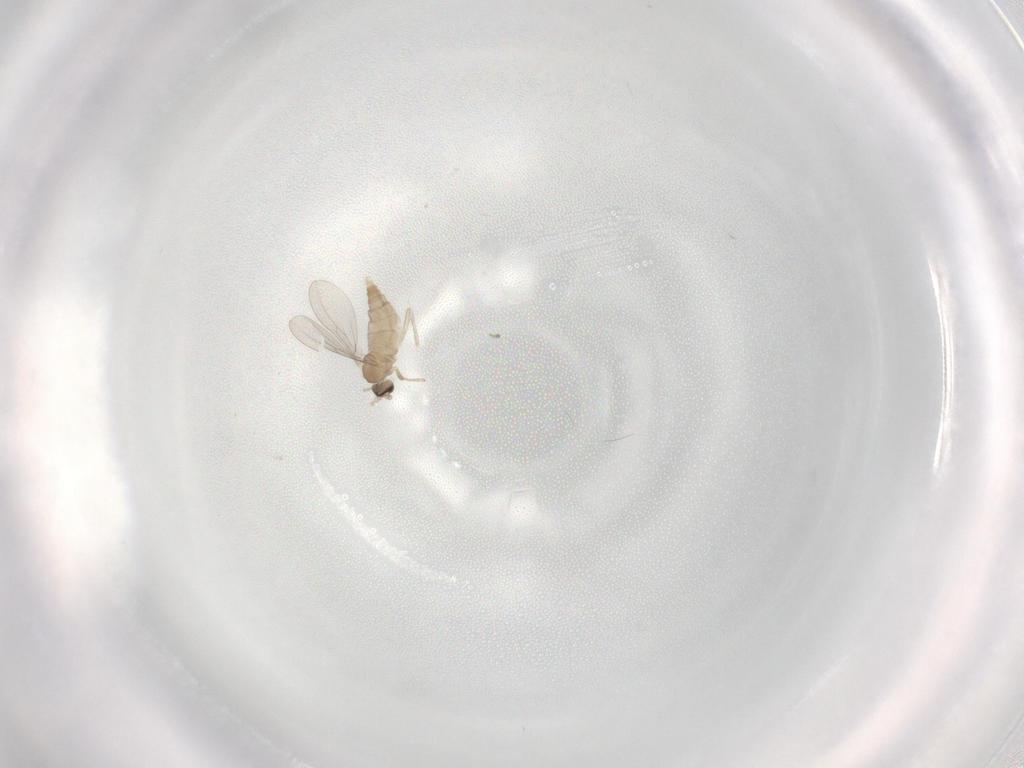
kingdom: Animalia
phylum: Arthropoda
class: Insecta
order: Diptera
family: Cecidomyiidae
